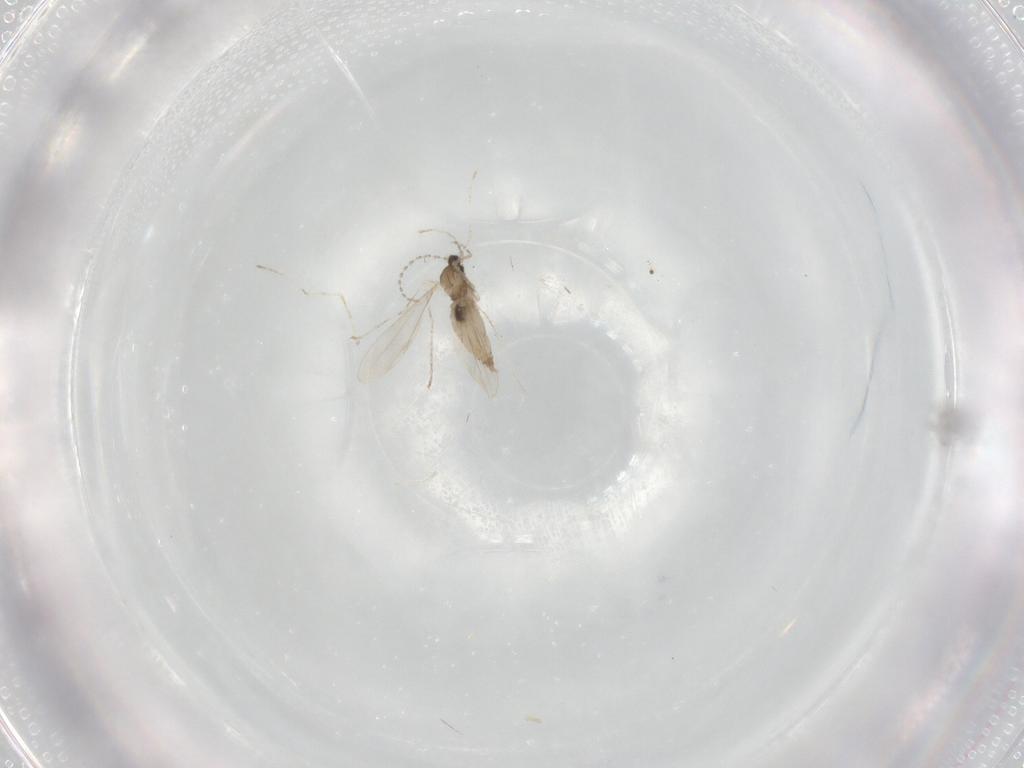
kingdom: Animalia
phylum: Arthropoda
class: Insecta
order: Diptera
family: Cecidomyiidae
